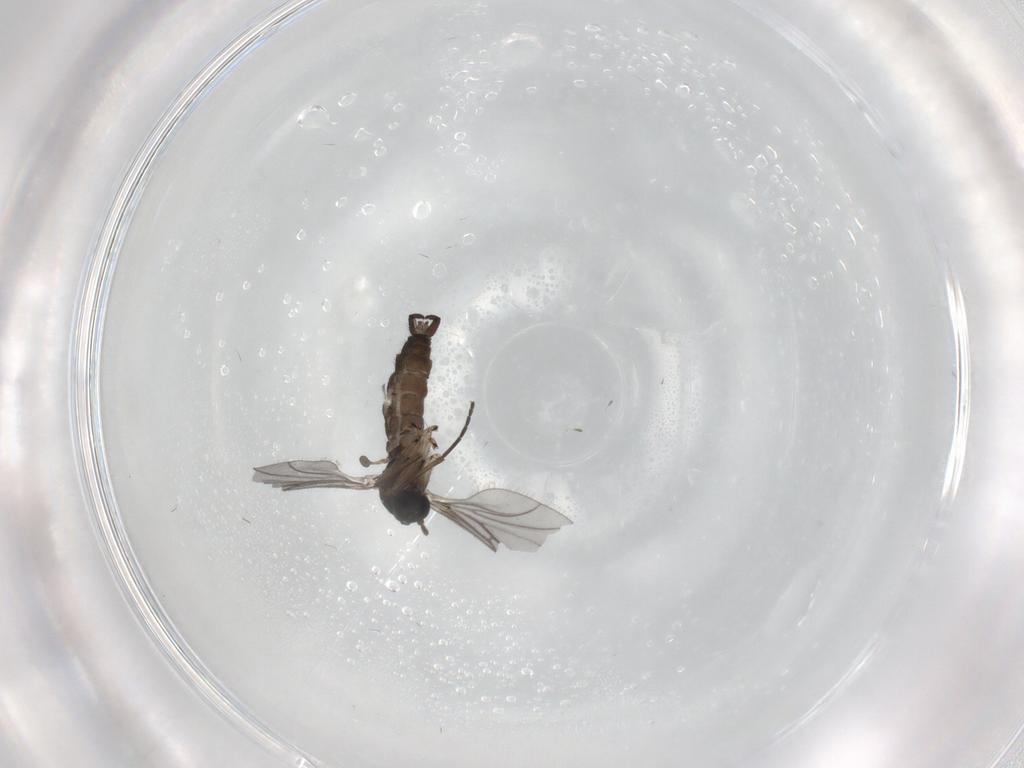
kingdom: Animalia
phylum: Arthropoda
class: Insecta
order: Diptera
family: Sciaridae
